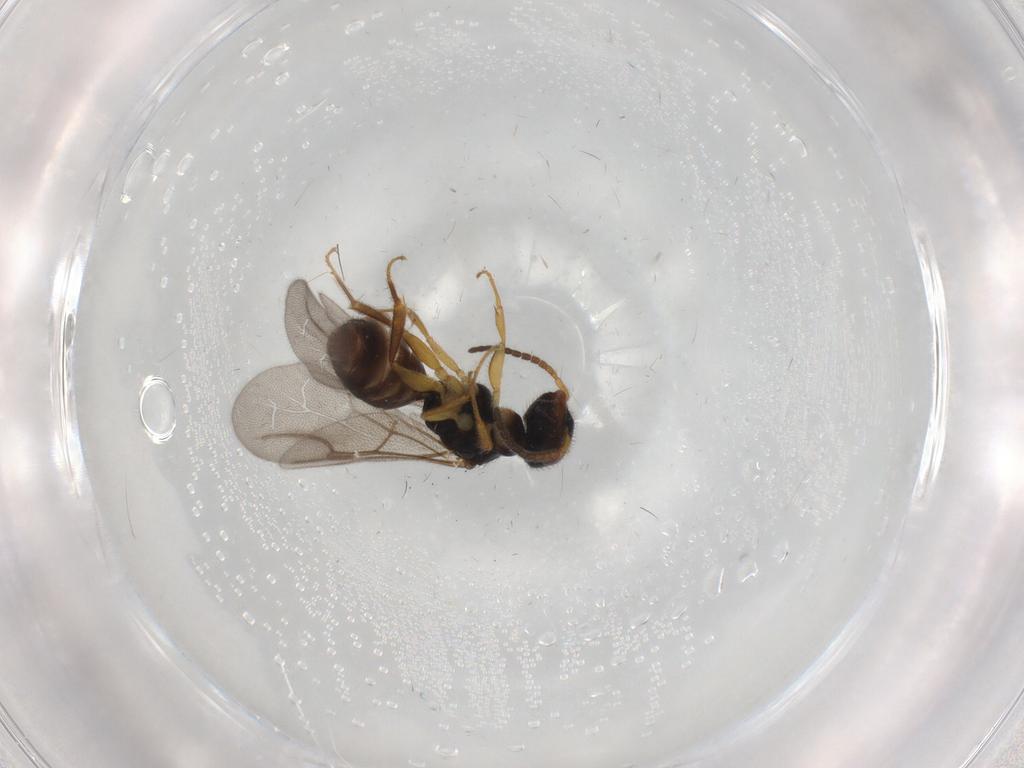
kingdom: Animalia
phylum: Arthropoda
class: Insecta
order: Hymenoptera
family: Bethylidae
